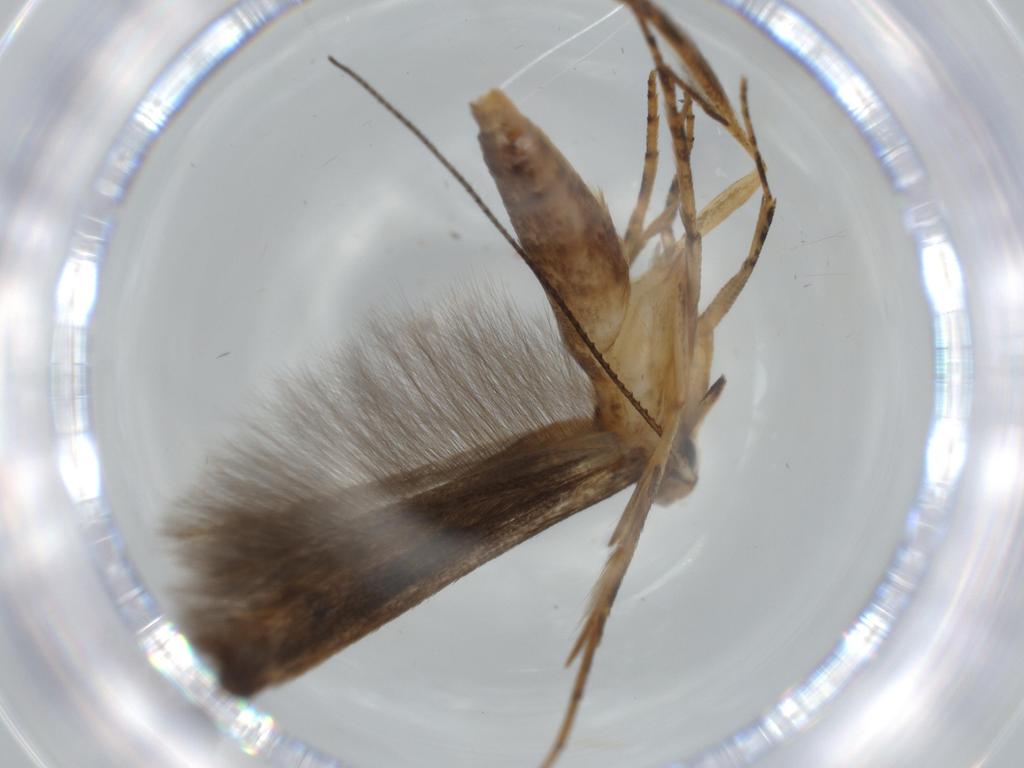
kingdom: Animalia
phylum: Arthropoda
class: Insecta
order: Lepidoptera
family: Heliodinidae
